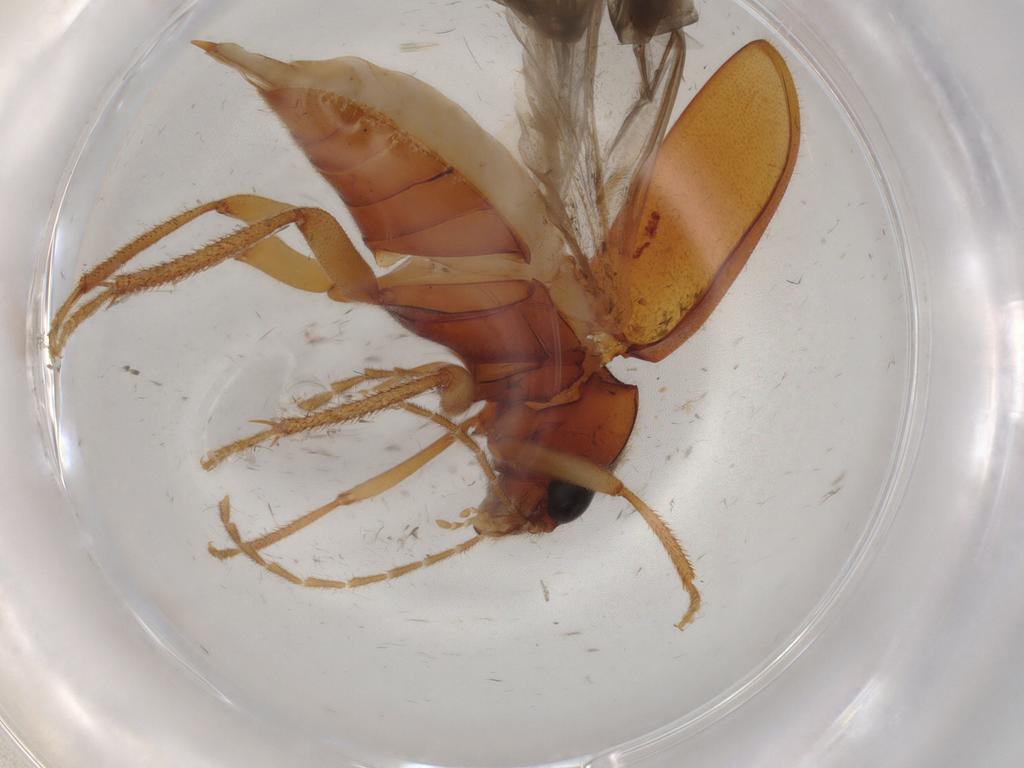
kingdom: Animalia
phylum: Arthropoda
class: Insecta
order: Coleoptera
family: Ptilodactylidae
